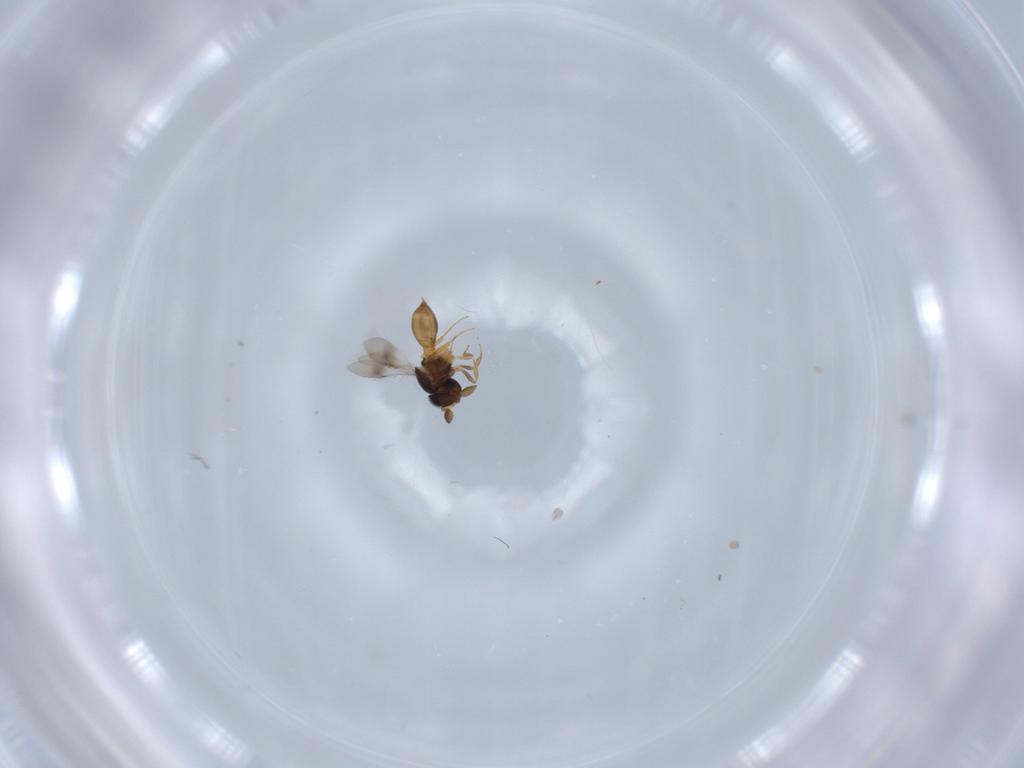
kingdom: Animalia
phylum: Arthropoda
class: Insecta
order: Hymenoptera
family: Scelionidae
